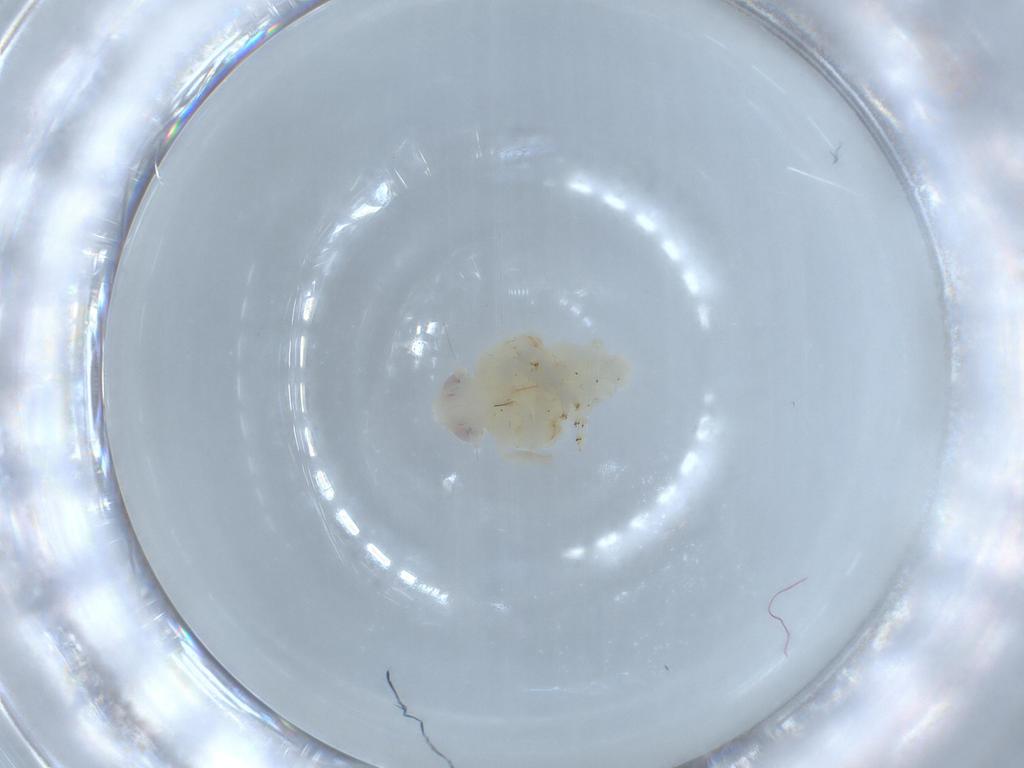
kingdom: Animalia
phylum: Arthropoda
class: Insecta
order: Hemiptera
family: Nogodinidae
